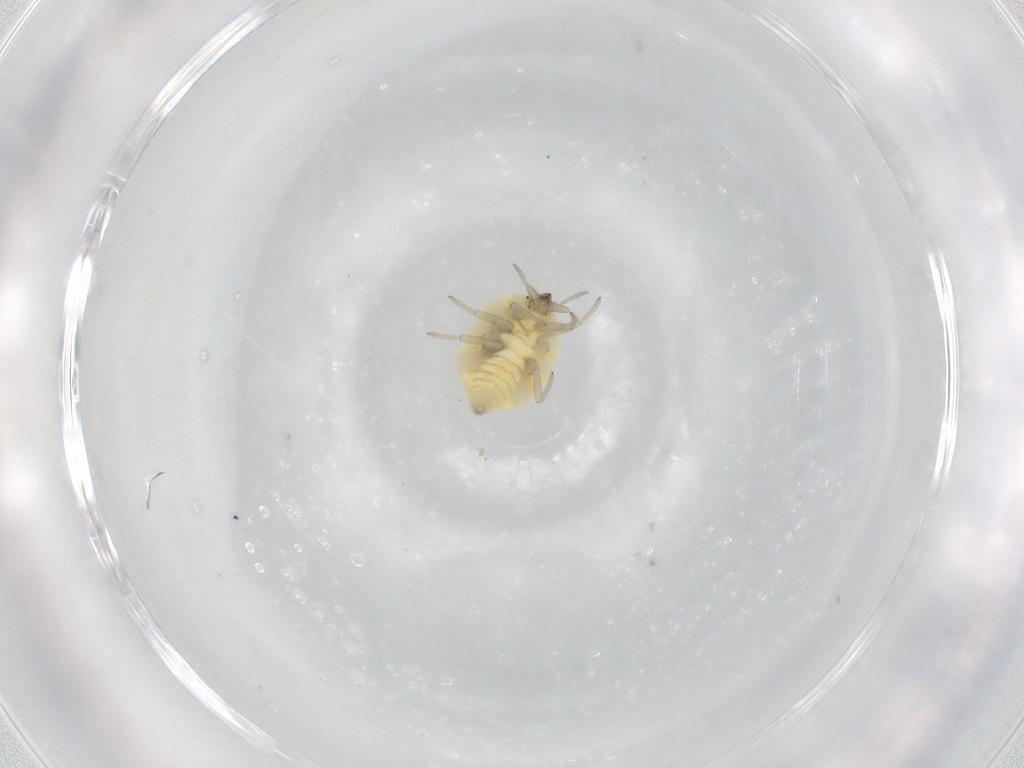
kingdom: Animalia
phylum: Arthropoda
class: Insecta
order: Neuroptera
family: Coniopterygidae
